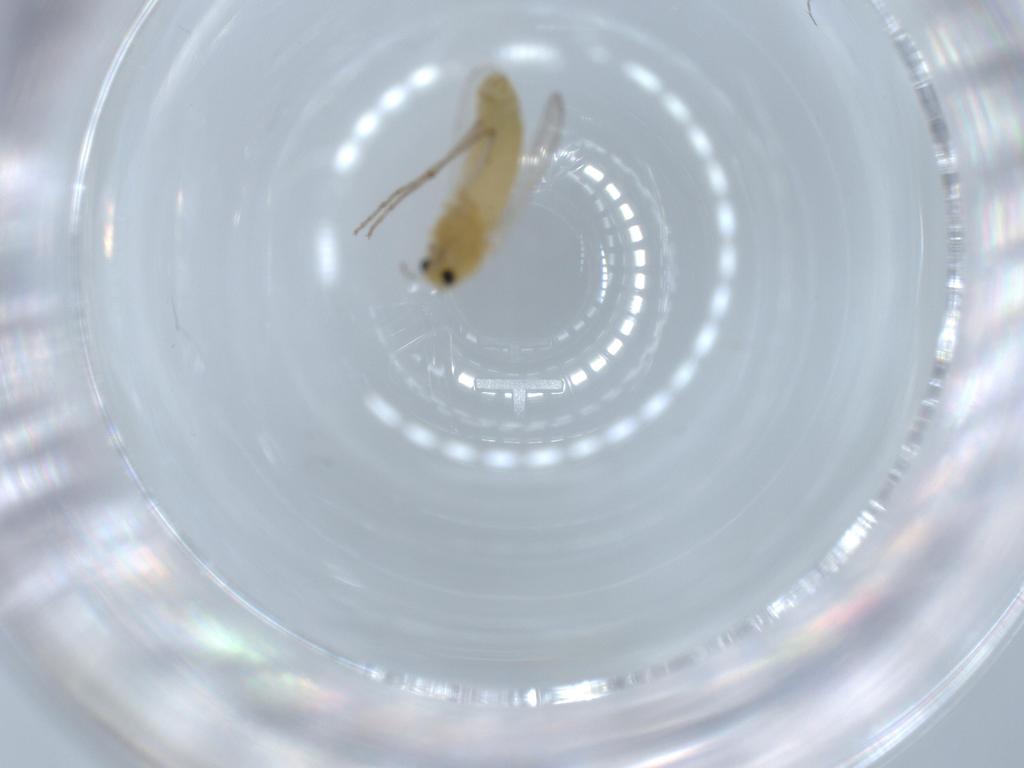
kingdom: Animalia
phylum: Arthropoda
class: Insecta
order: Diptera
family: Chironomidae
